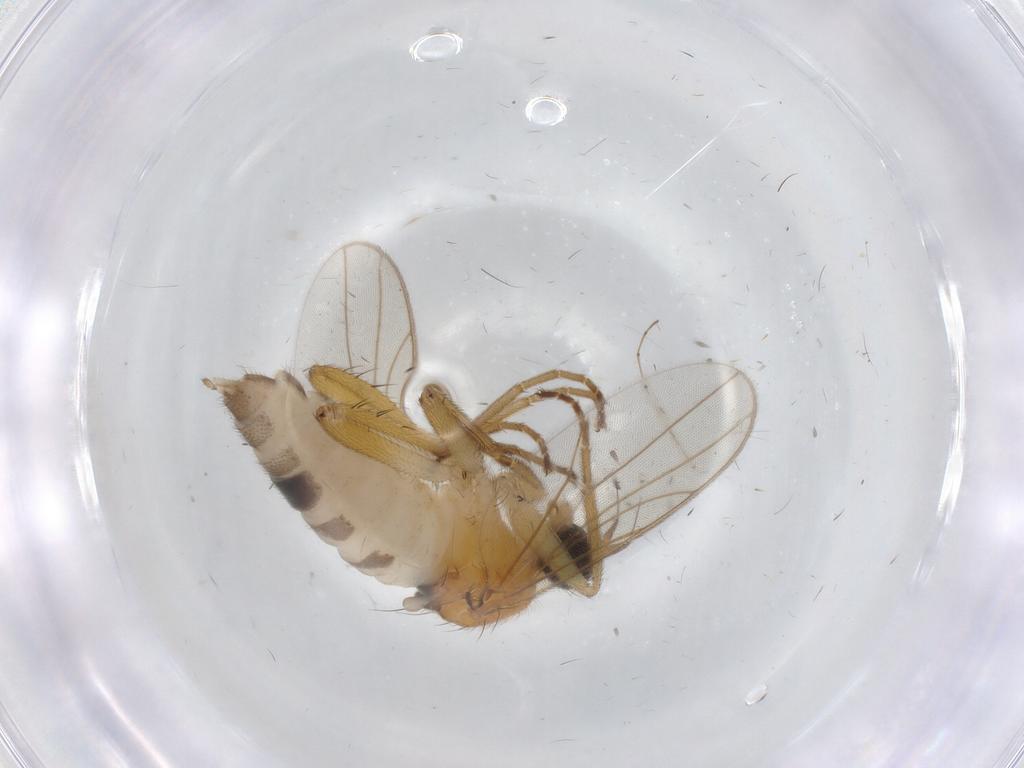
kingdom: Animalia
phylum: Arthropoda
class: Insecta
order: Diptera
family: Hybotidae
